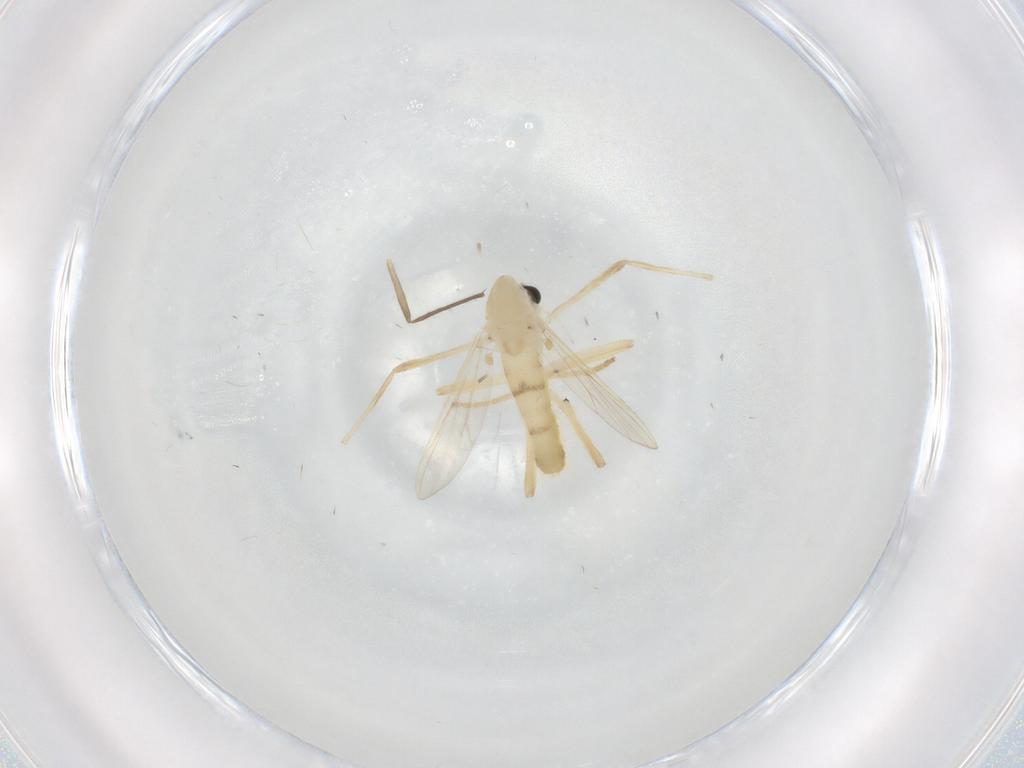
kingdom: Animalia
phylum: Arthropoda
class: Insecta
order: Diptera
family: Chironomidae
